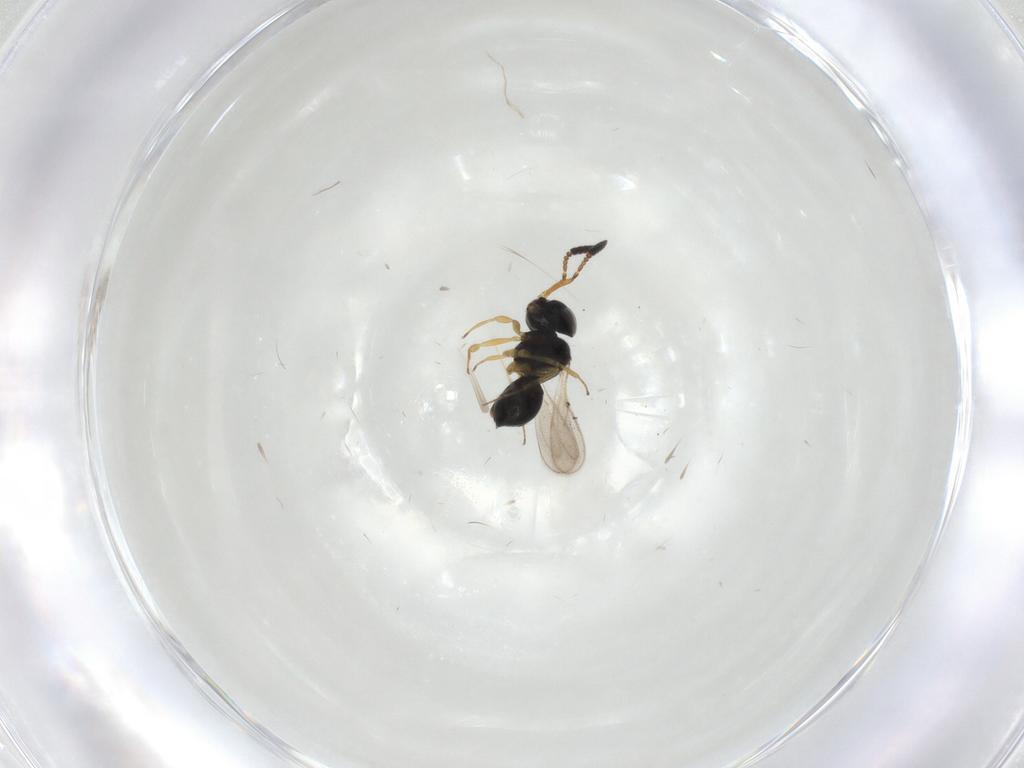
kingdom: Animalia
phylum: Arthropoda
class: Insecta
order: Hymenoptera
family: Scelionidae
